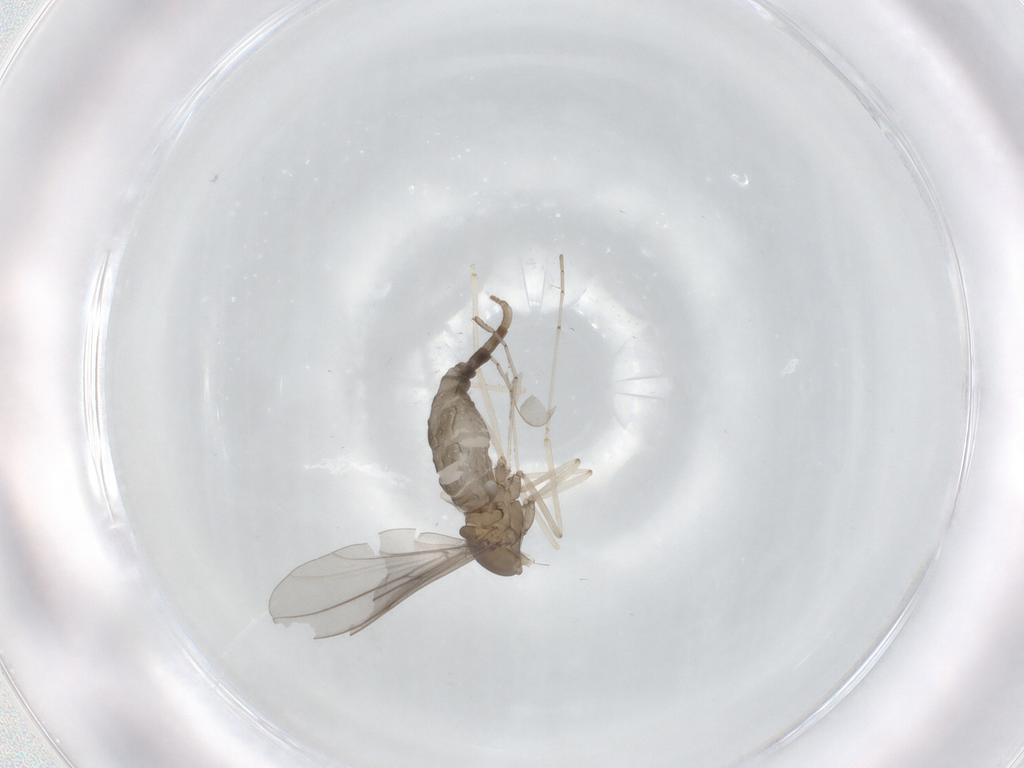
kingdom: Animalia
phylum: Arthropoda
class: Insecta
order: Diptera
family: Cecidomyiidae
